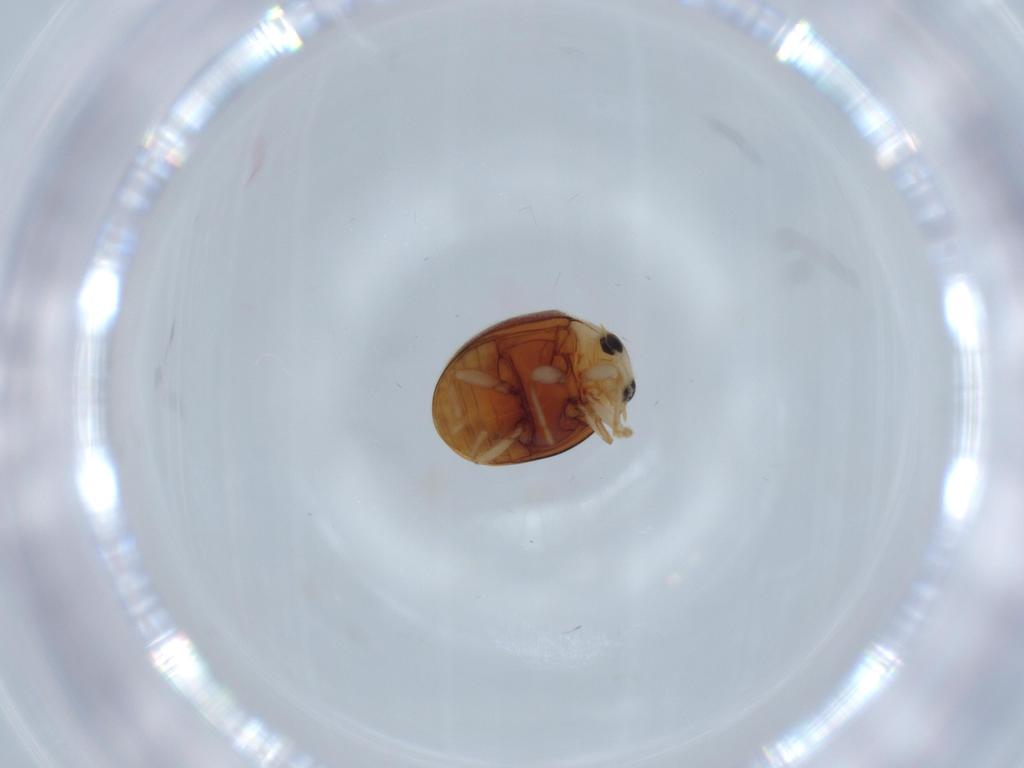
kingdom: Animalia
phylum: Arthropoda
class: Insecta
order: Coleoptera
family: Coccinellidae
